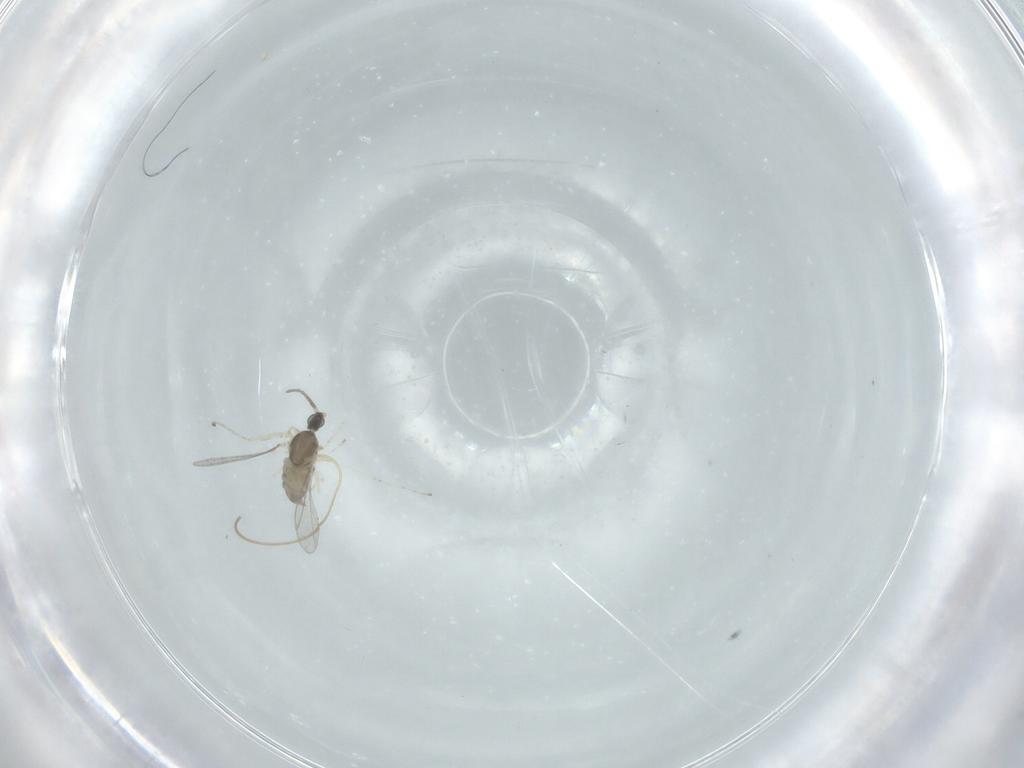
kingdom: Animalia
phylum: Arthropoda
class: Insecta
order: Diptera
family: Cecidomyiidae
